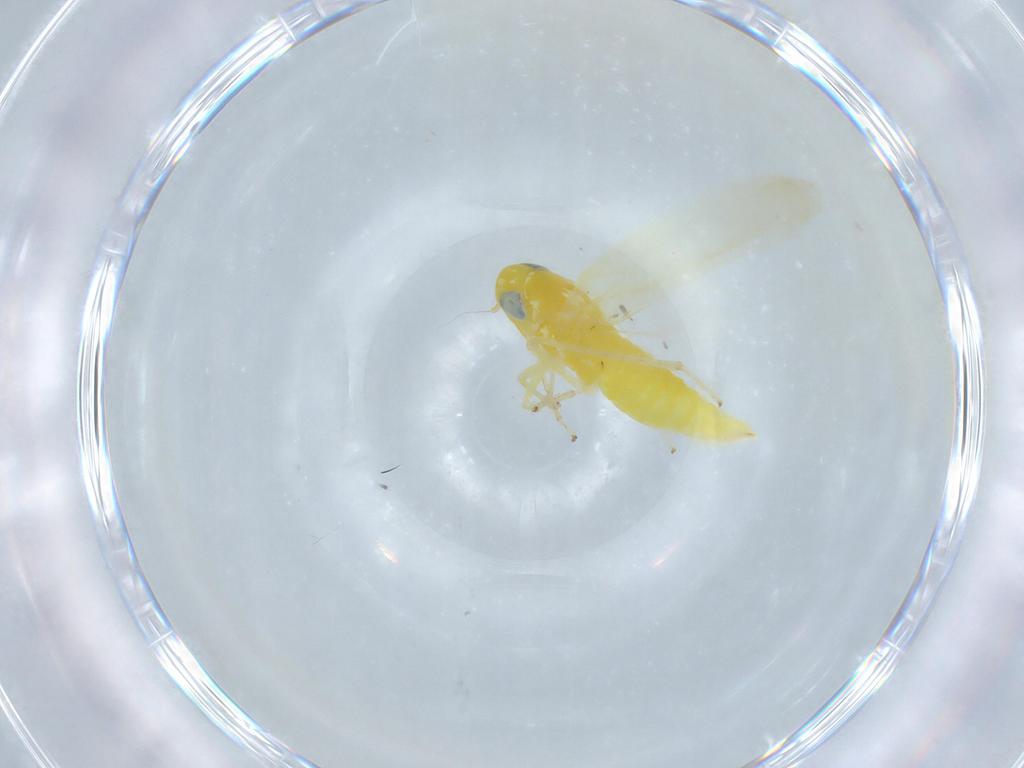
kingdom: Animalia
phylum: Arthropoda
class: Insecta
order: Hemiptera
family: Cicadellidae
